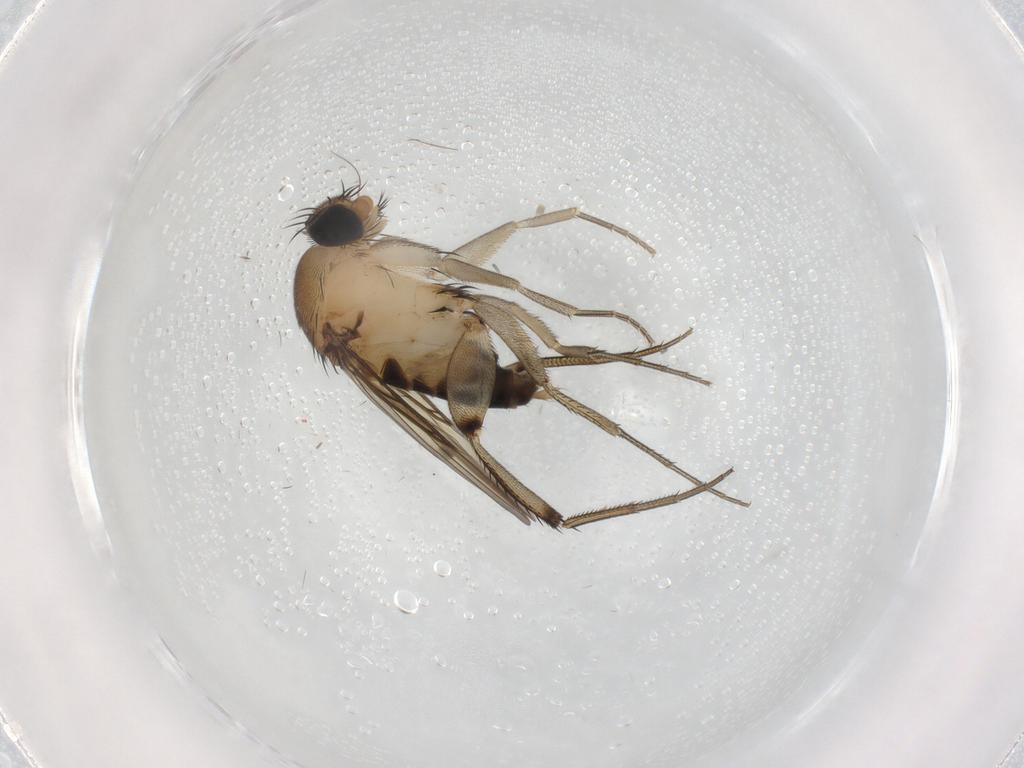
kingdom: Animalia
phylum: Arthropoda
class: Insecta
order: Diptera
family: Phoridae
